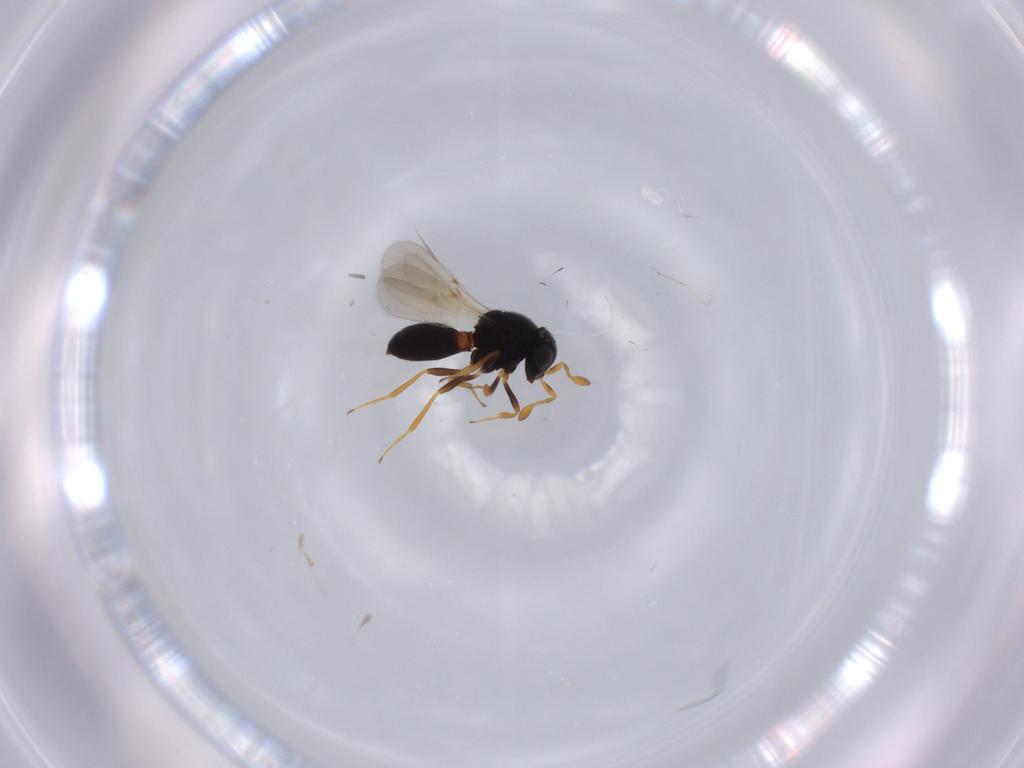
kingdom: Animalia
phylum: Arthropoda
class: Insecta
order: Hymenoptera
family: Scelionidae
